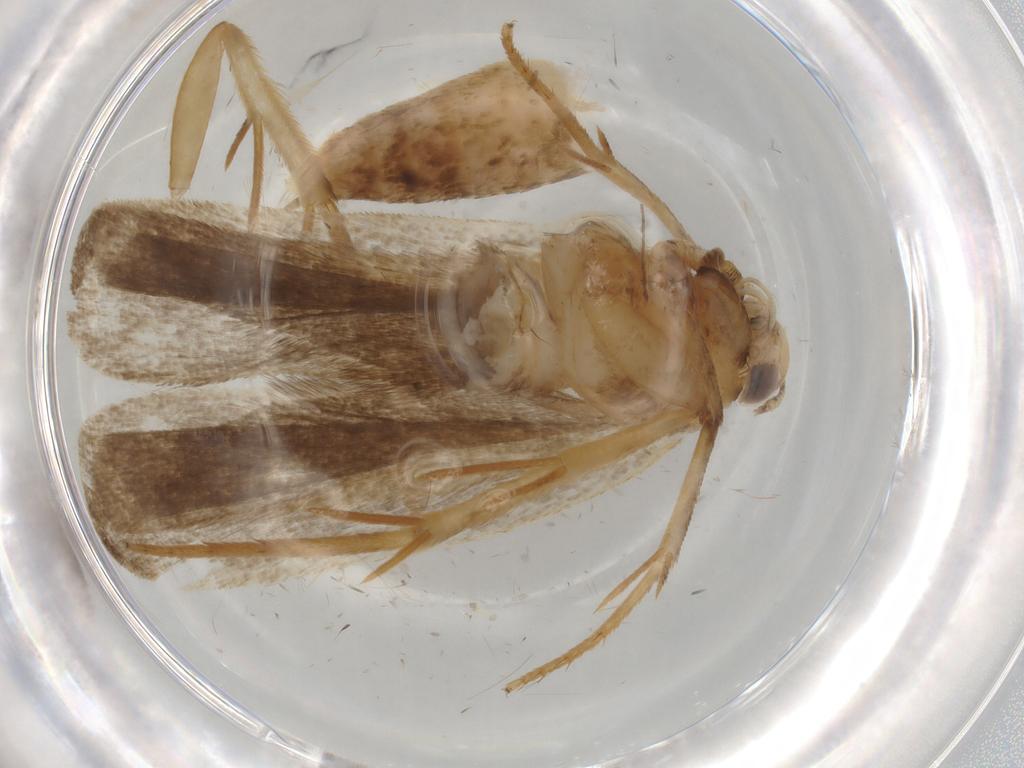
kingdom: Animalia
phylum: Arthropoda
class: Insecta
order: Lepidoptera
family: Gelechiidae
